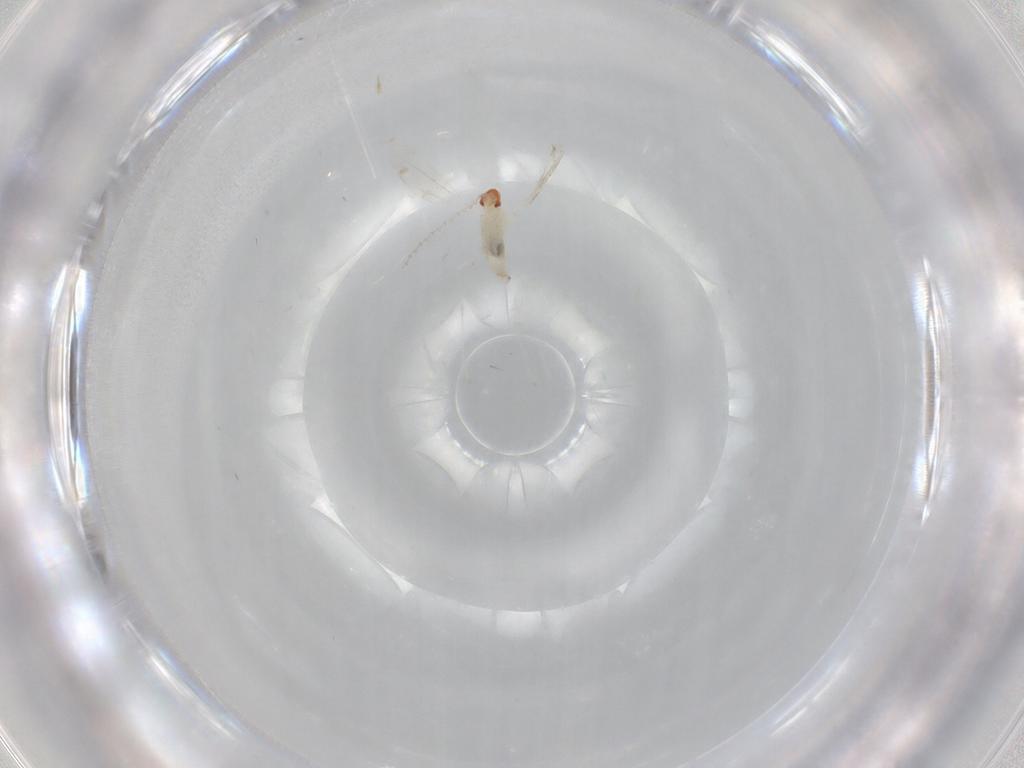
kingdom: Animalia
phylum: Arthropoda
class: Insecta
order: Diptera
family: Cecidomyiidae
